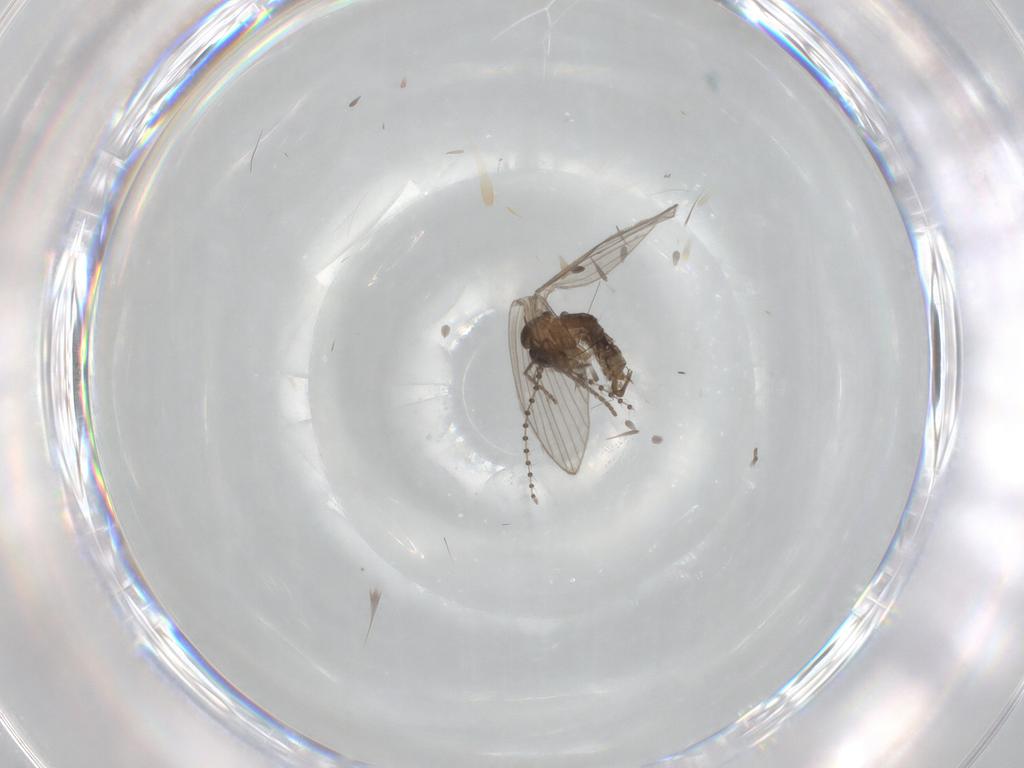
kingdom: Animalia
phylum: Arthropoda
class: Insecta
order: Diptera
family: Psychodidae
